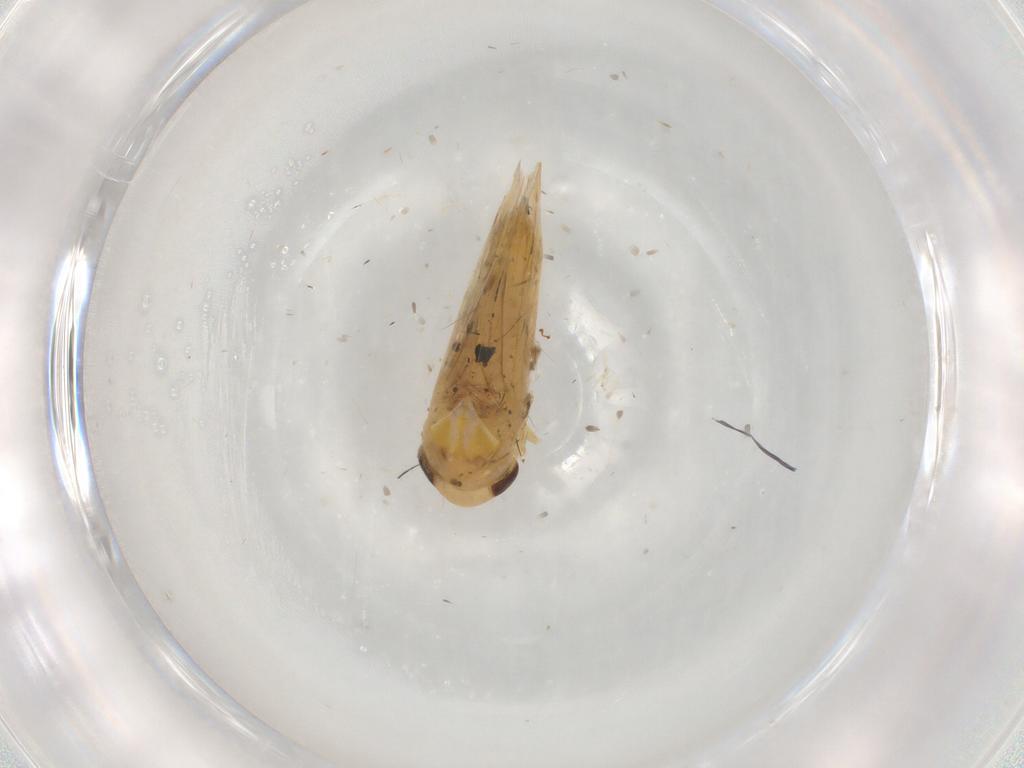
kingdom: Animalia
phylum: Arthropoda
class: Insecta
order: Hemiptera
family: Cicadellidae
